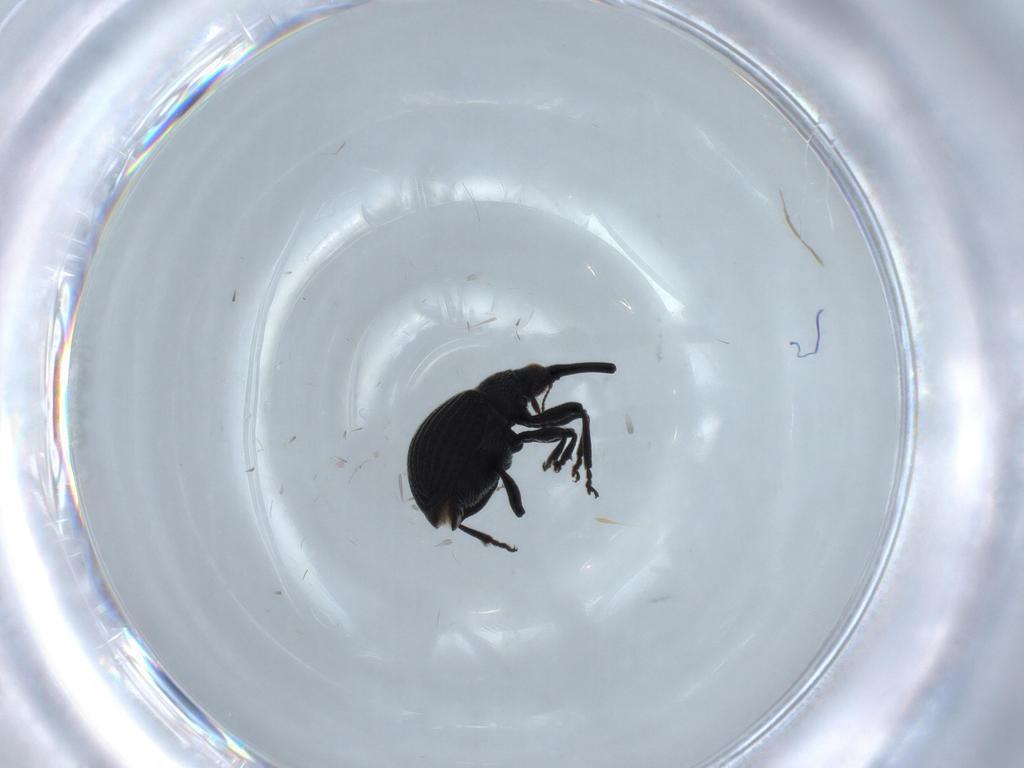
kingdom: Animalia
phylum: Arthropoda
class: Insecta
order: Coleoptera
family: Brentidae
